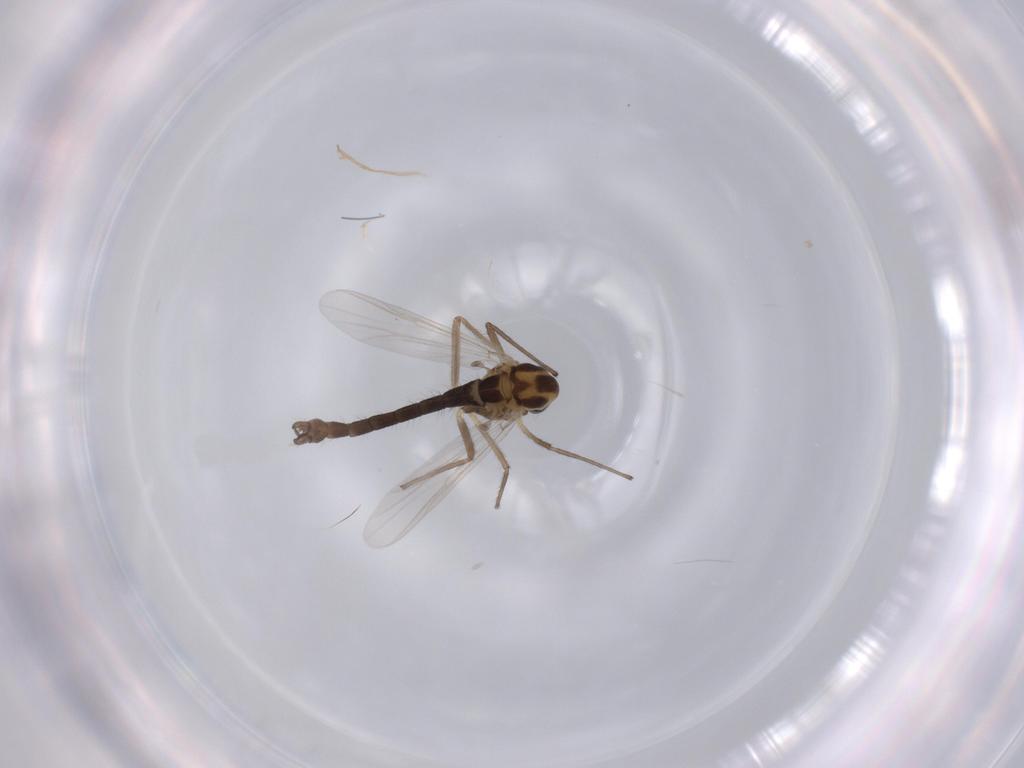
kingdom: Animalia
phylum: Arthropoda
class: Insecta
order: Diptera
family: Chironomidae
